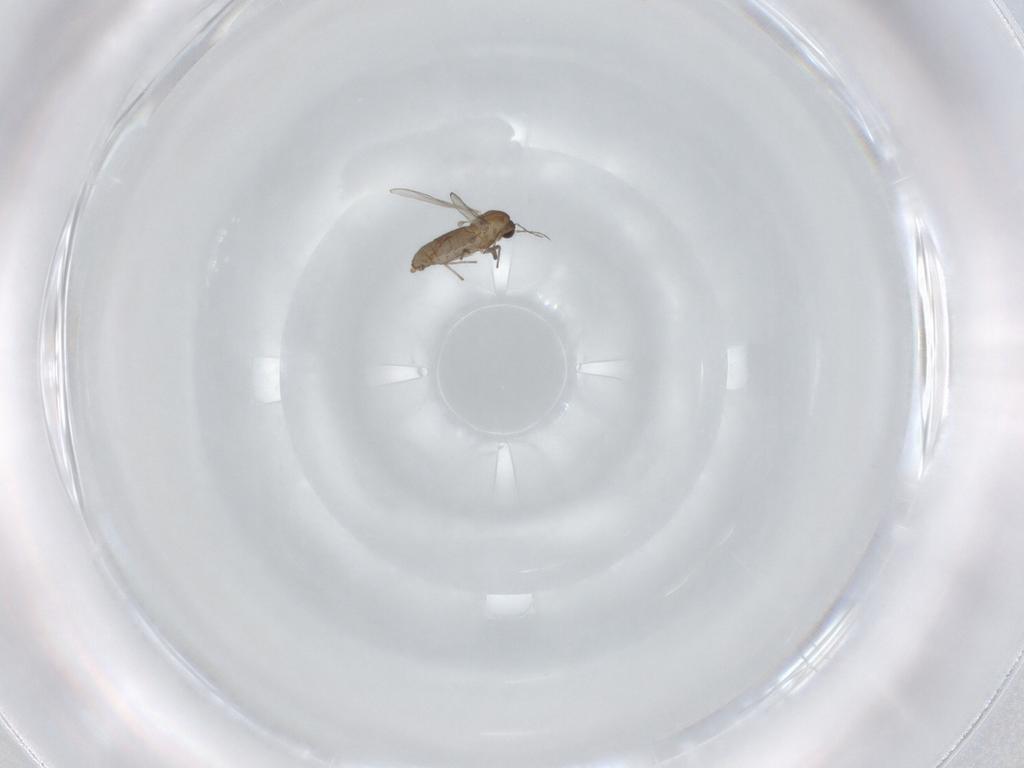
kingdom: Animalia
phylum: Arthropoda
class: Insecta
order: Diptera
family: Chironomidae
